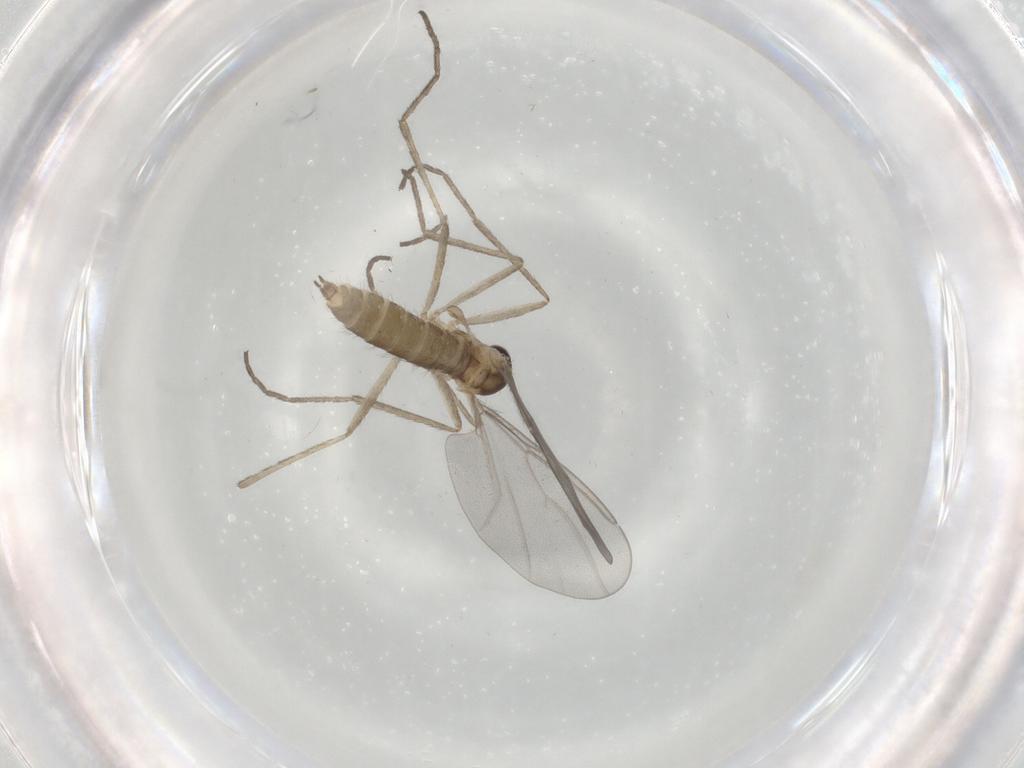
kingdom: Animalia
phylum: Arthropoda
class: Insecta
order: Diptera
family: Cecidomyiidae
